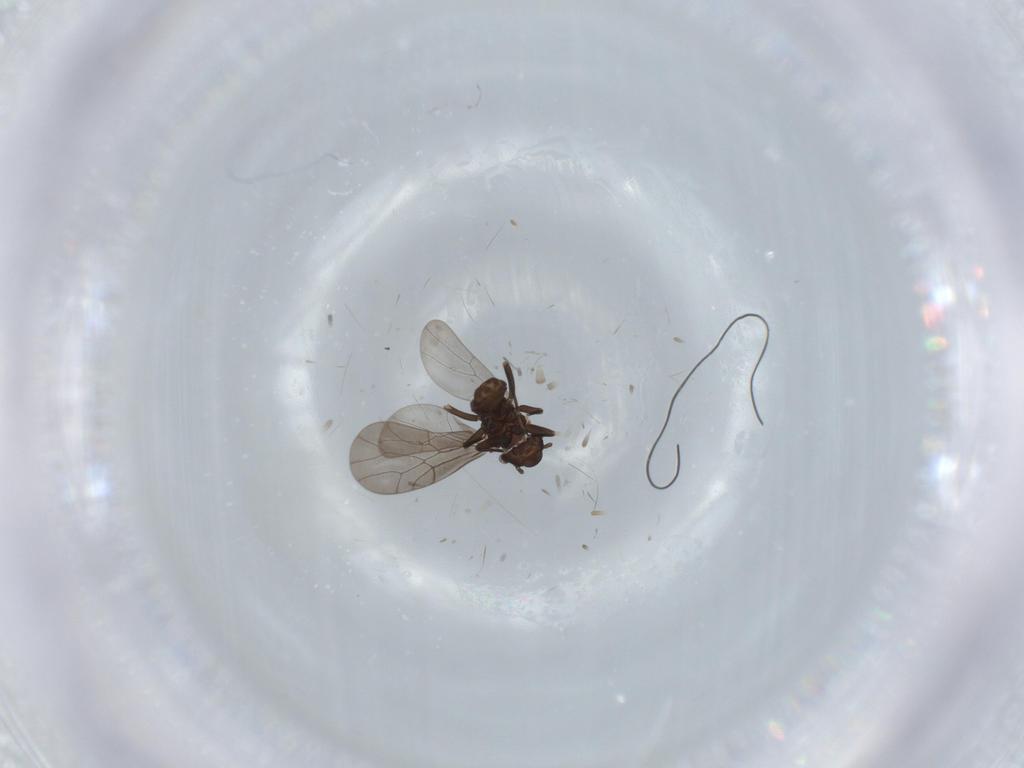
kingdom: Animalia
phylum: Arthropoda
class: Insecta
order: Psocodea
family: Lepidopsocidae
